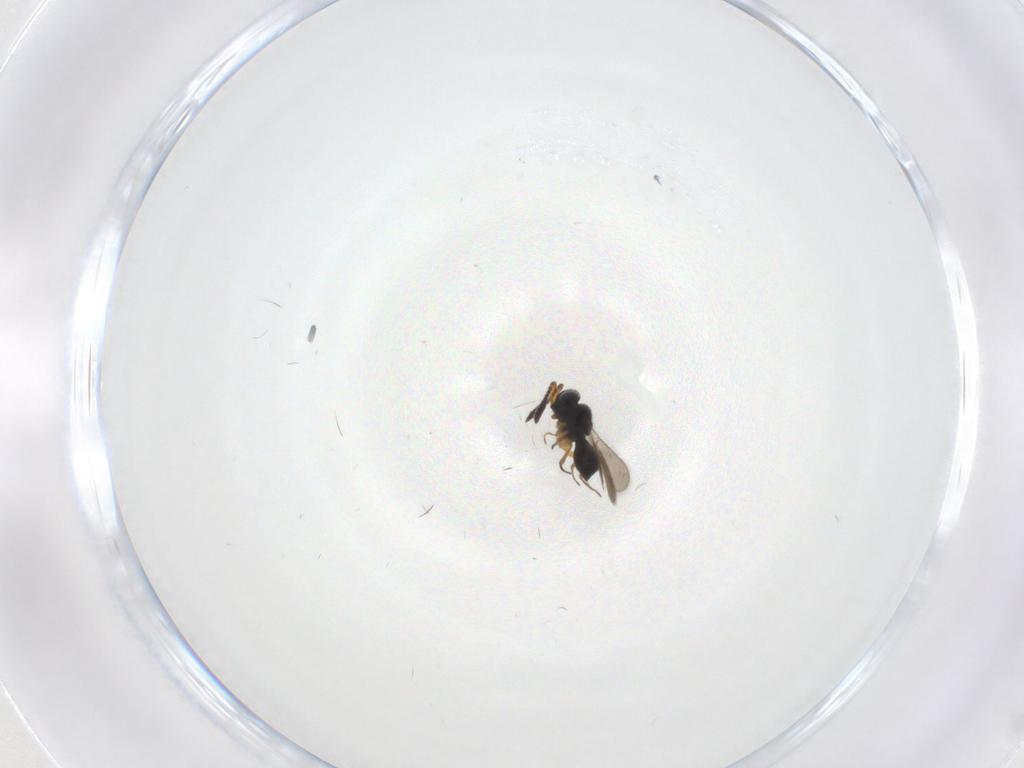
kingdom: Animalia
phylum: Arthropoda
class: Insecta
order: Hymenoptera
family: Scelionidae
